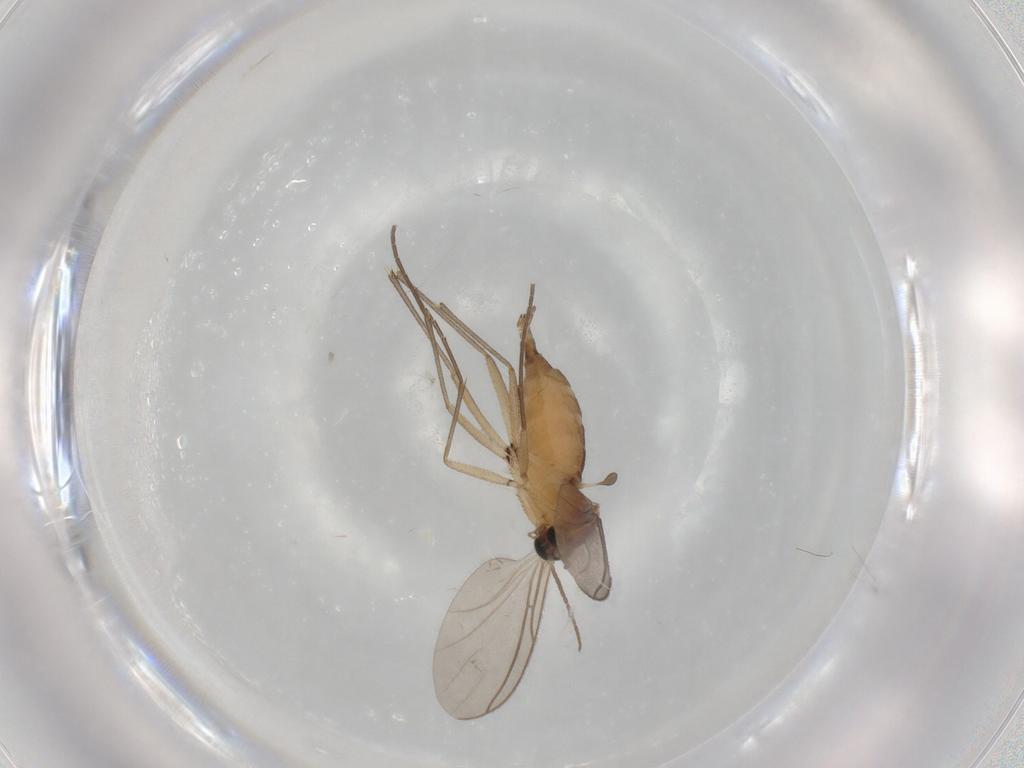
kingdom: Animalia
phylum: Arthropoda
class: Insecta
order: Diptera
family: Sciaridae
